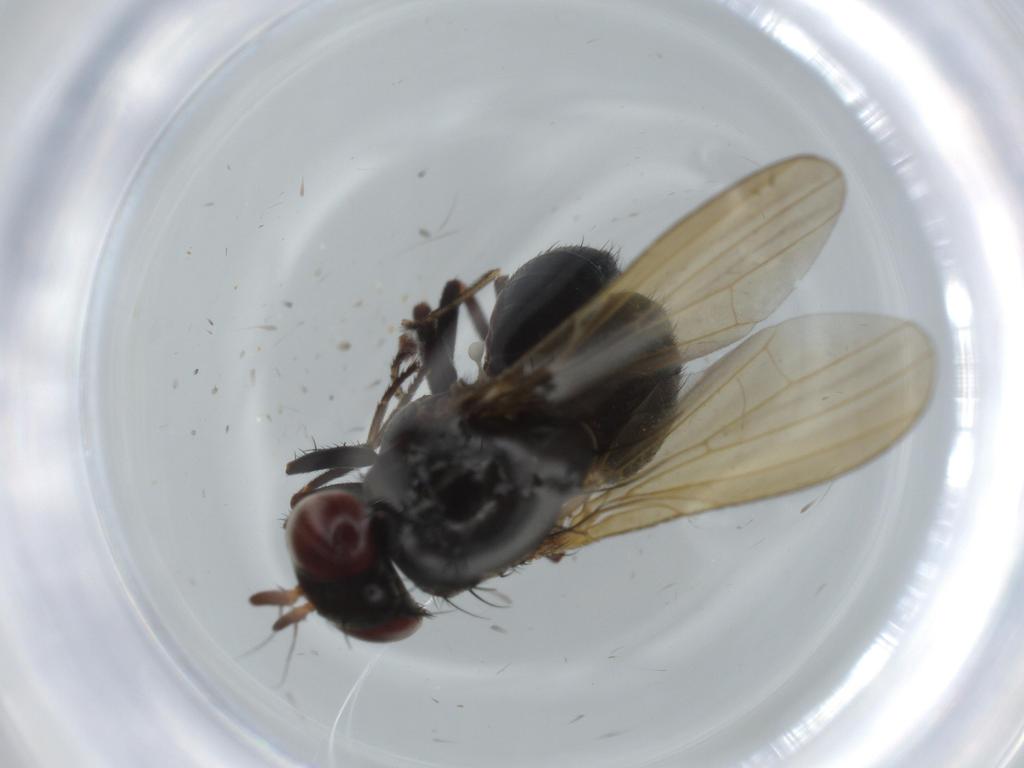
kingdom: Animalia
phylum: Arthropoda
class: Insecta
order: Diptera
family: Lauxaniidae
